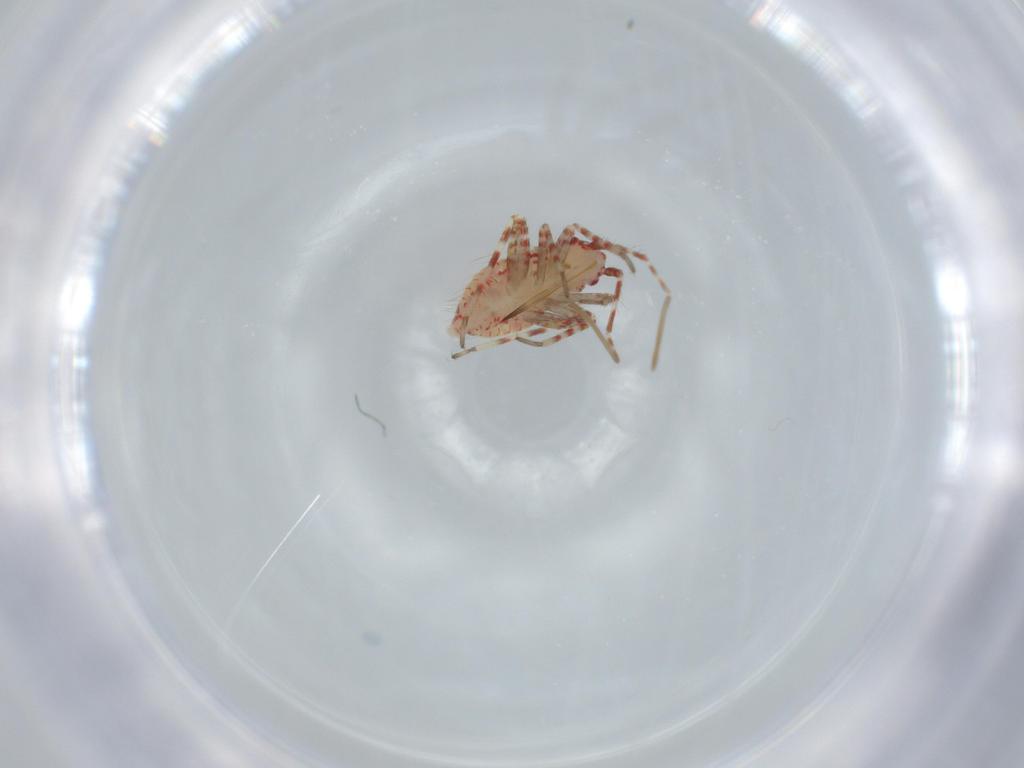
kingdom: Animalia
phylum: Arthropoda
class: Insecta
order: Hemiptera
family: Miridae
